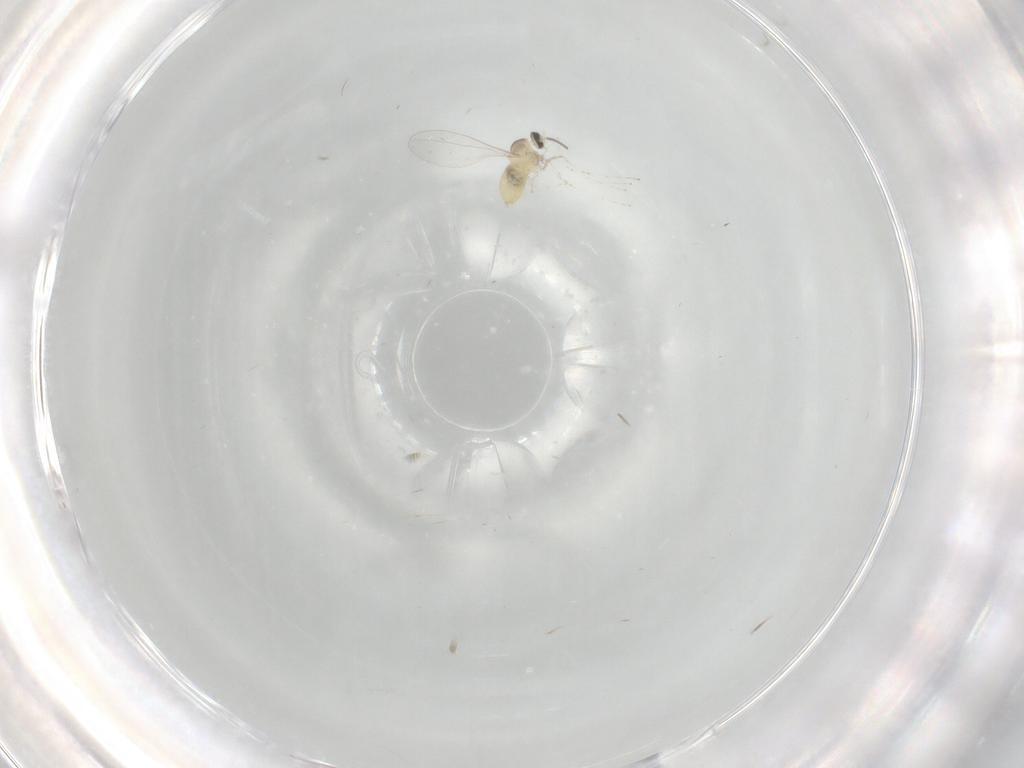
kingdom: Animalia
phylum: Arthropoda
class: Insecta
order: Diptera
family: Cecidomyiidae
